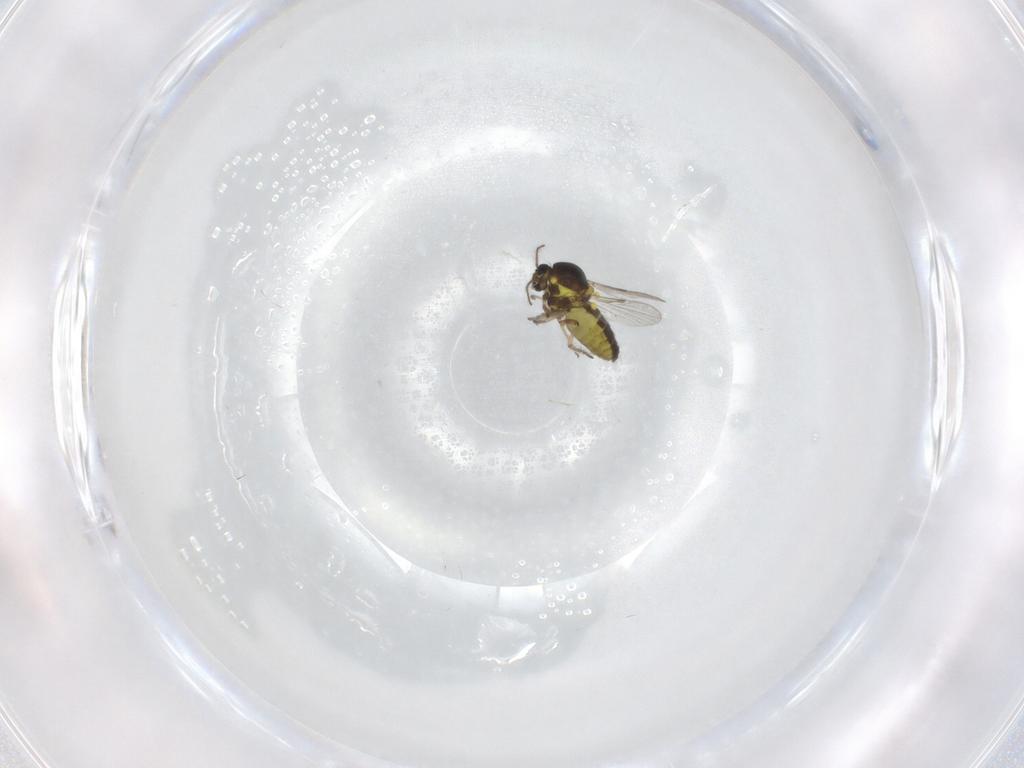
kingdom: Animalia
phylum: Arthropoda
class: Insecta
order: Diptera
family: Ceratopogonidae
